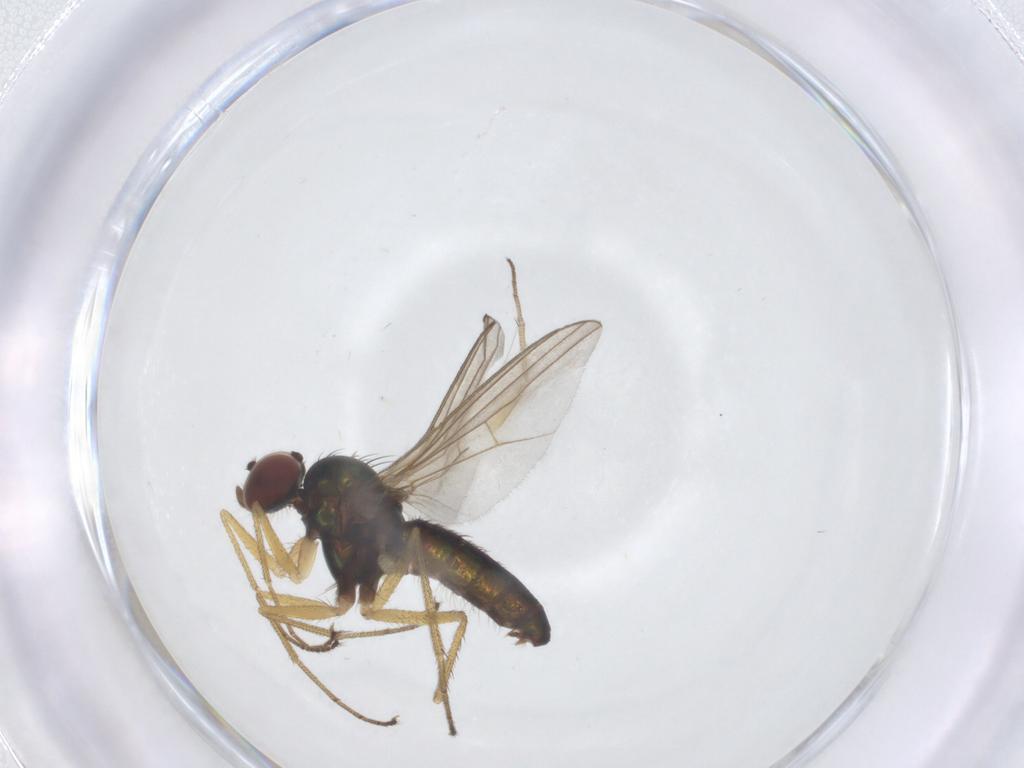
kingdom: Animalia
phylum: Arthropoda
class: Insecta
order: Diptera
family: Dolichopodidae
